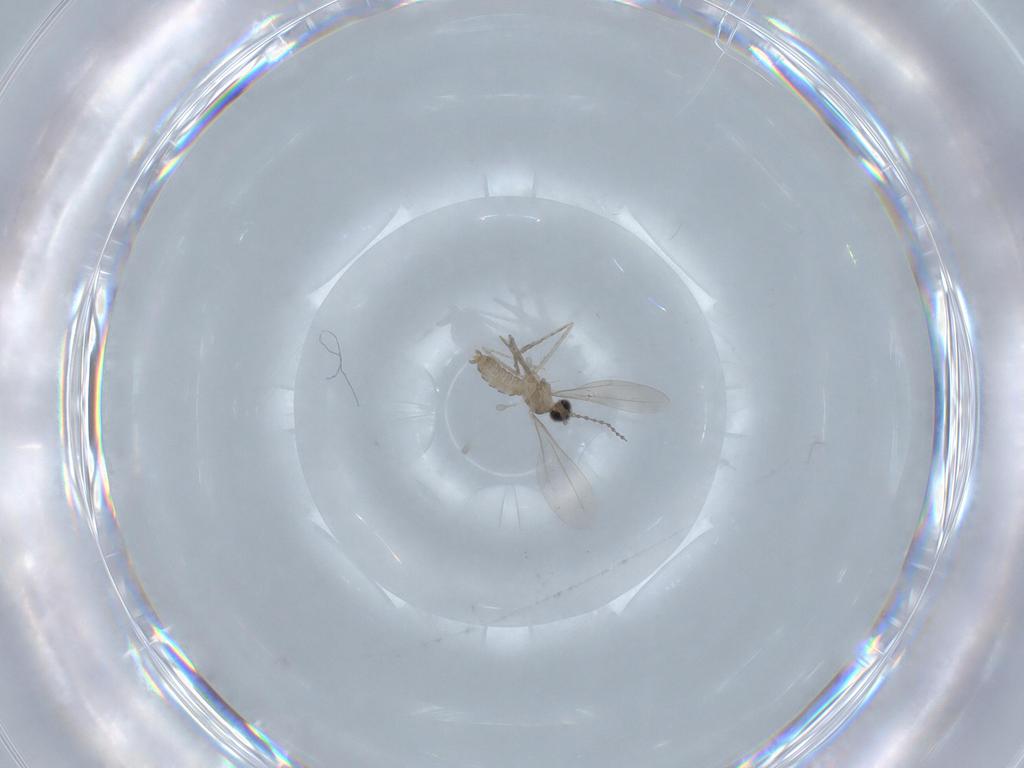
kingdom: Animalia
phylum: Arthropoda
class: Insecta
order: Diptera
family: Cecidomyiidae
